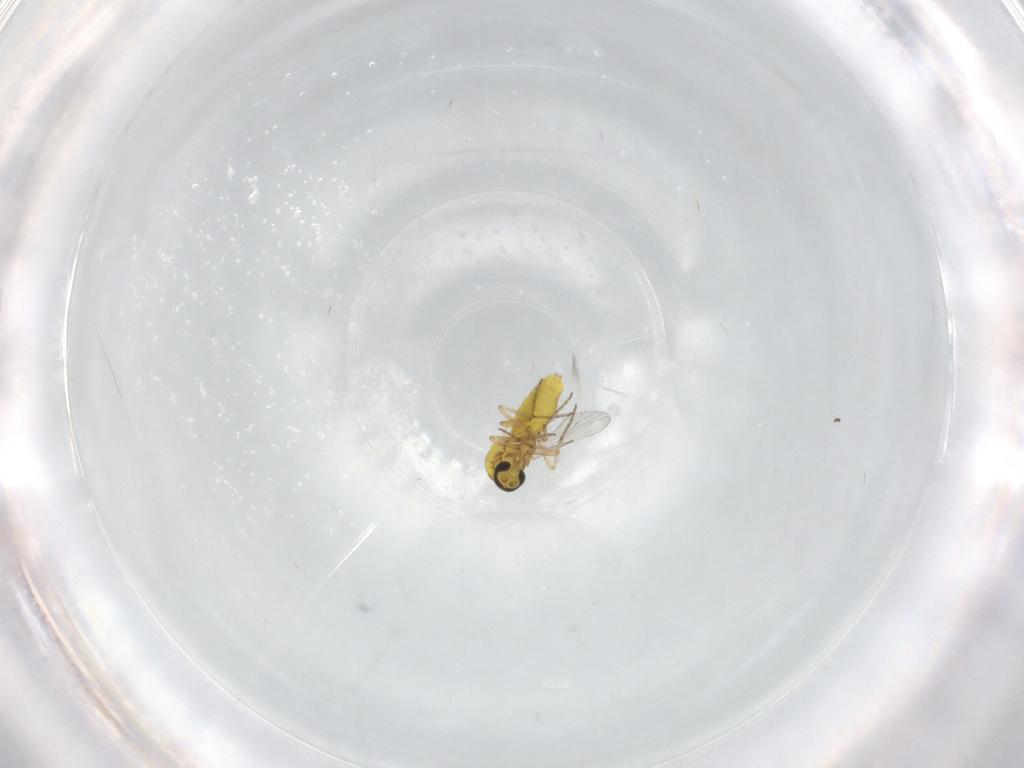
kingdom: Animalia
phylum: Arthropoda
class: Insecta
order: Diptera
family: Ceratopogonidae
